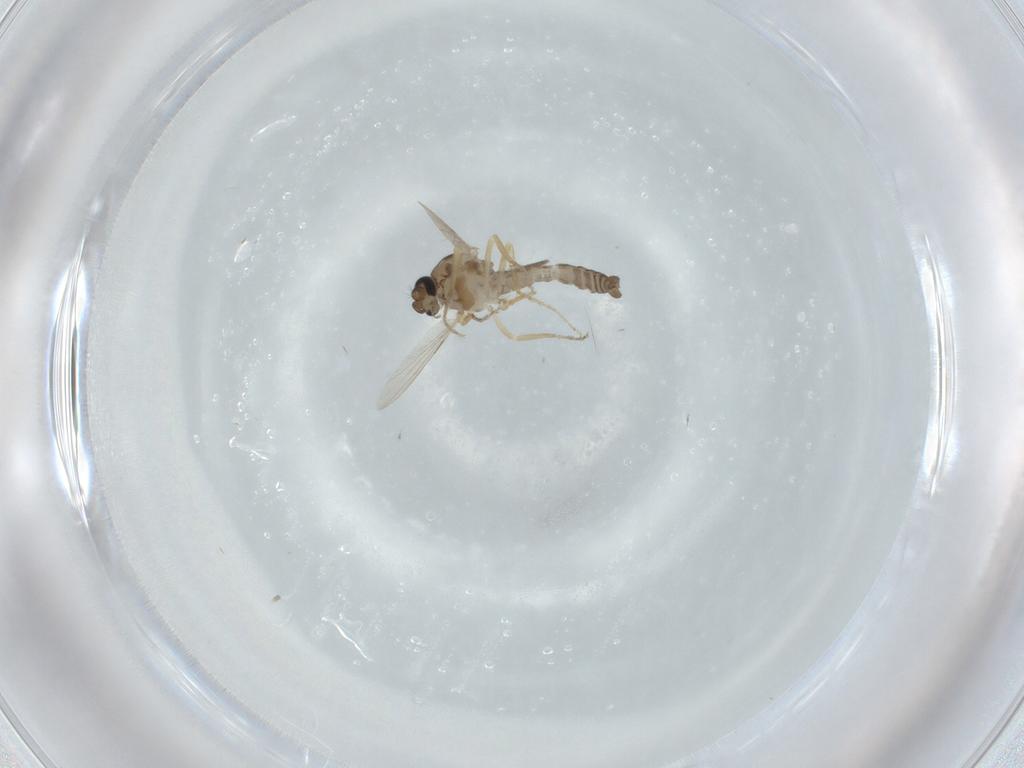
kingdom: Animalia
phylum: Arthropoda
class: Insecta
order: Diptera
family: Ceratopogonidae
